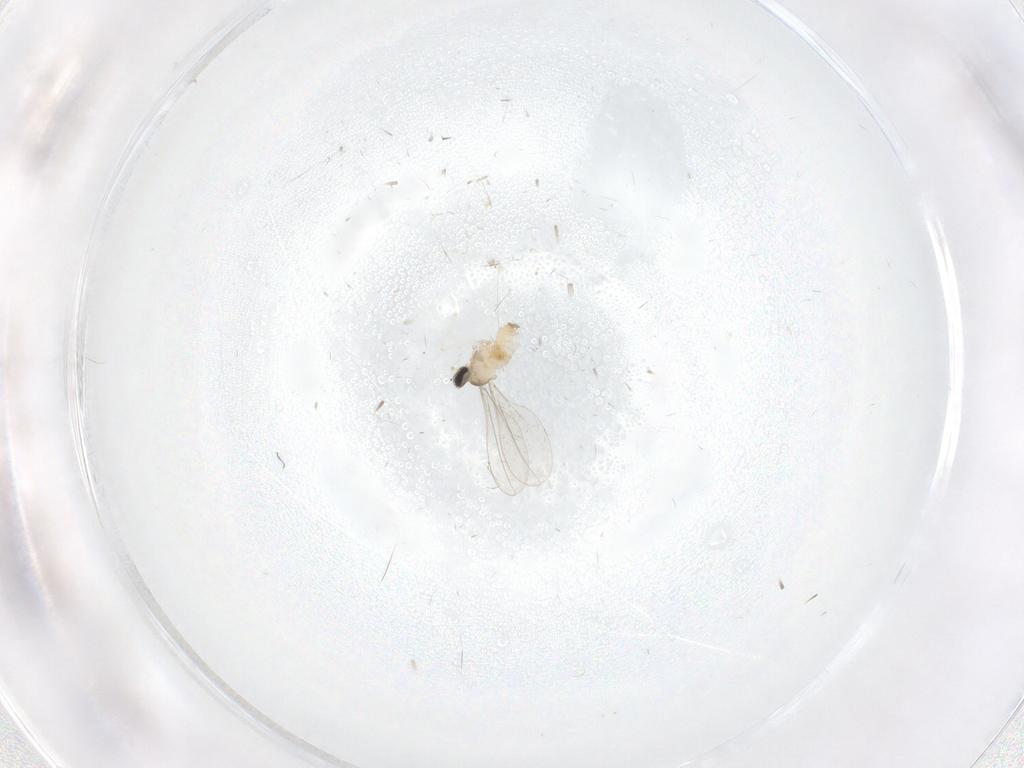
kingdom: Animalia
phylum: Arthropoda
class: Insecta
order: Diptera
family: Cecidomyiidae
